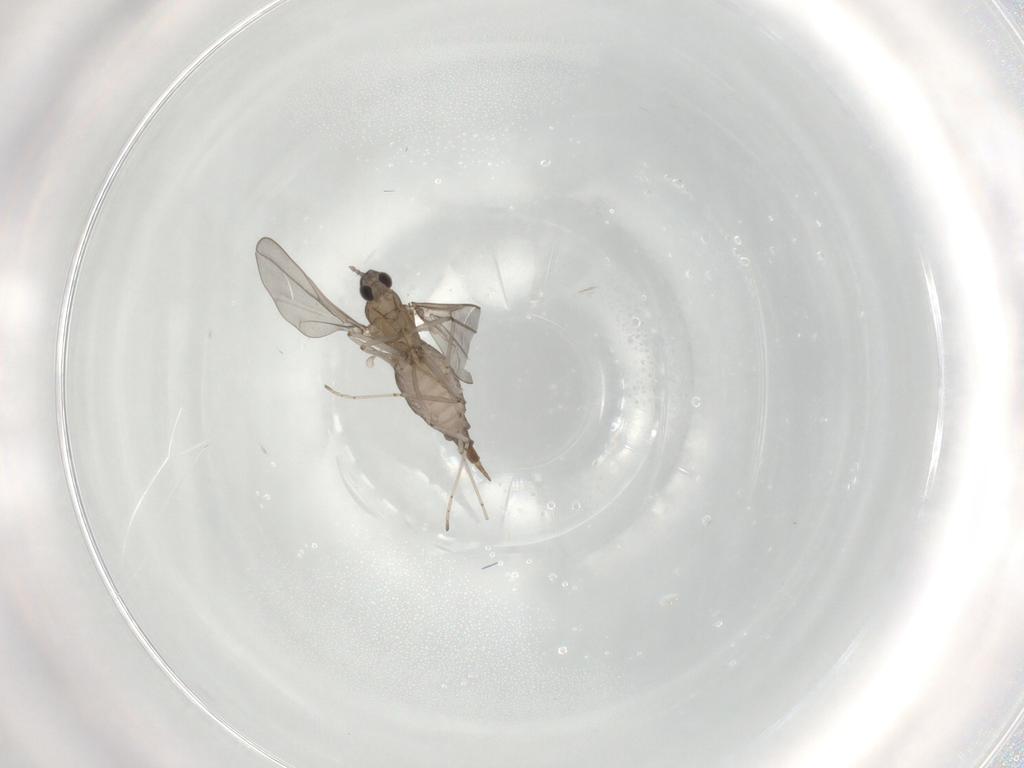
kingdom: Animalia
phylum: Arthropoda
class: Insecta
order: Diptera
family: Cecidomyiidae
